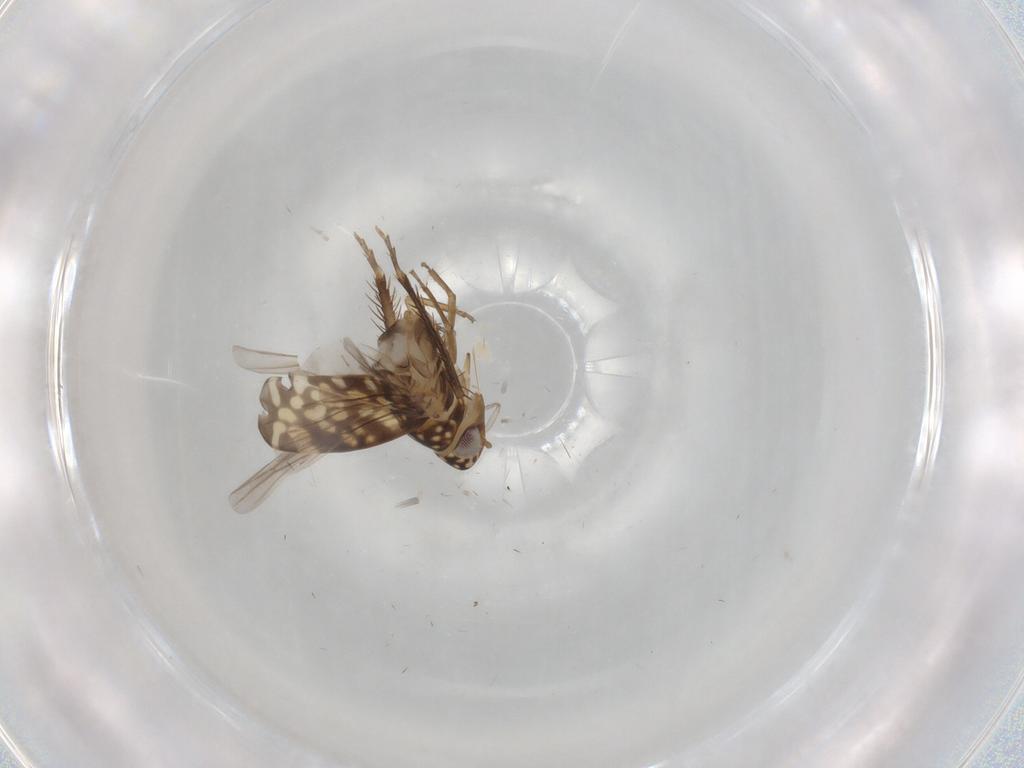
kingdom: Animalia
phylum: Arthropoda
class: Insecta
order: Hemiptera
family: Cicadellidae
